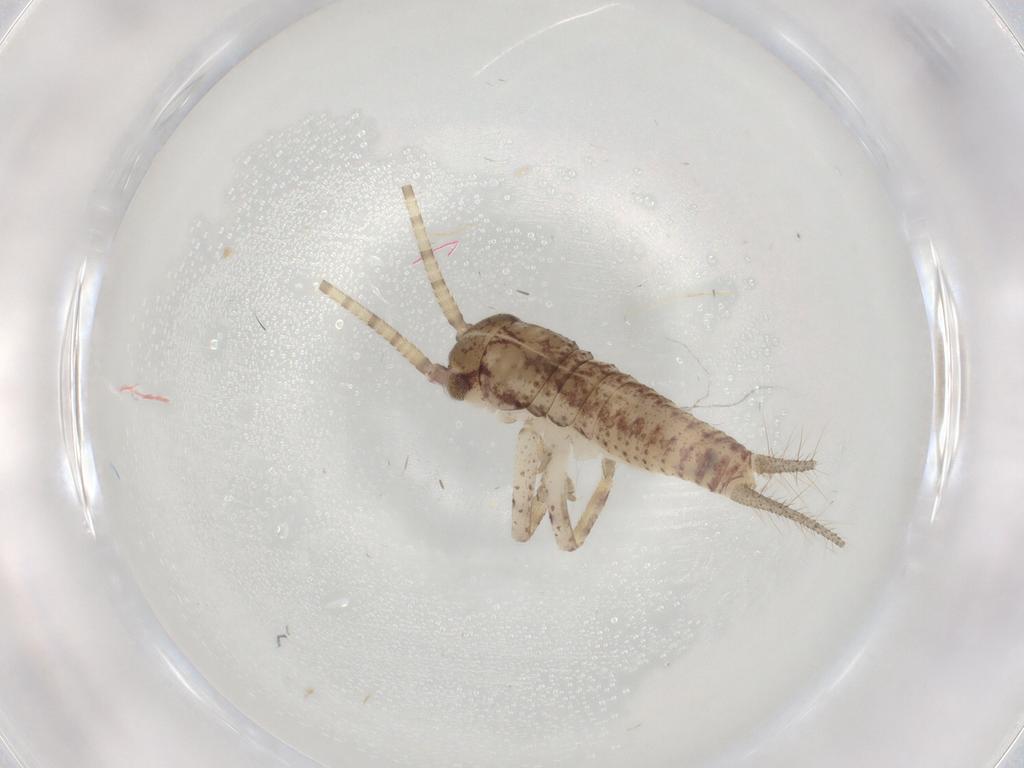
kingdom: Animalia
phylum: Arthropoda
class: Insecta
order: Orthoptera
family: Gryllidae
